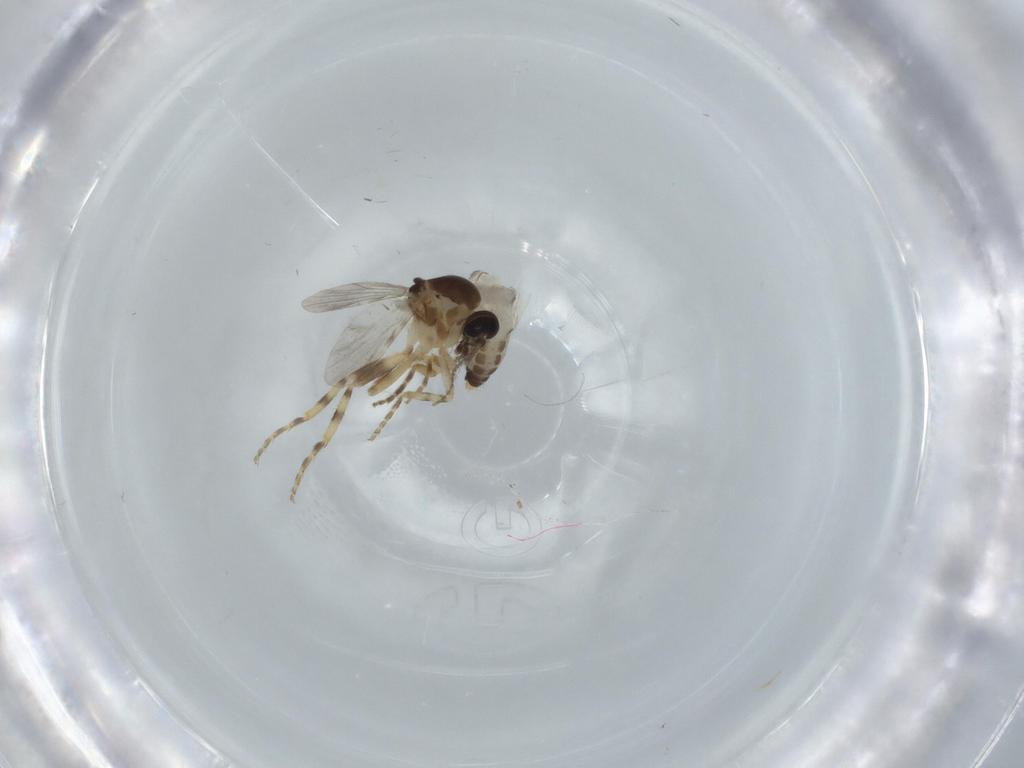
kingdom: Animalia
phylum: Arthropoda
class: Insecta
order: Diptera
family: Ceratopogonidae
